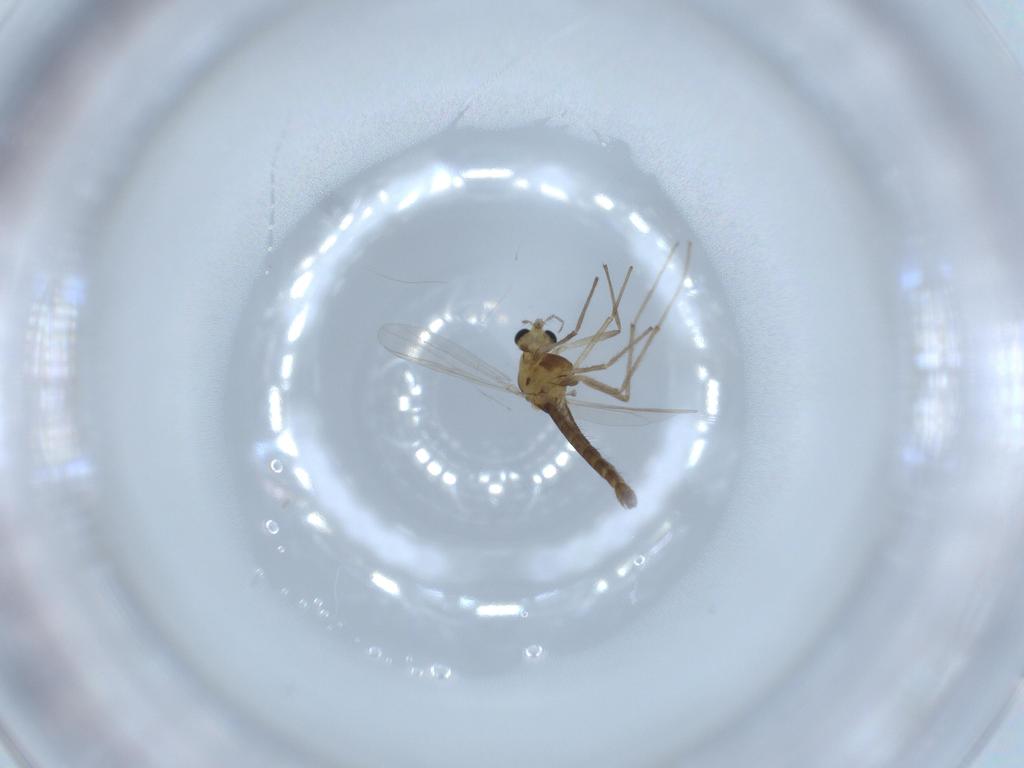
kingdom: Animalia
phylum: Arthropoda
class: Insecta
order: Diptera
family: Chironomidae
